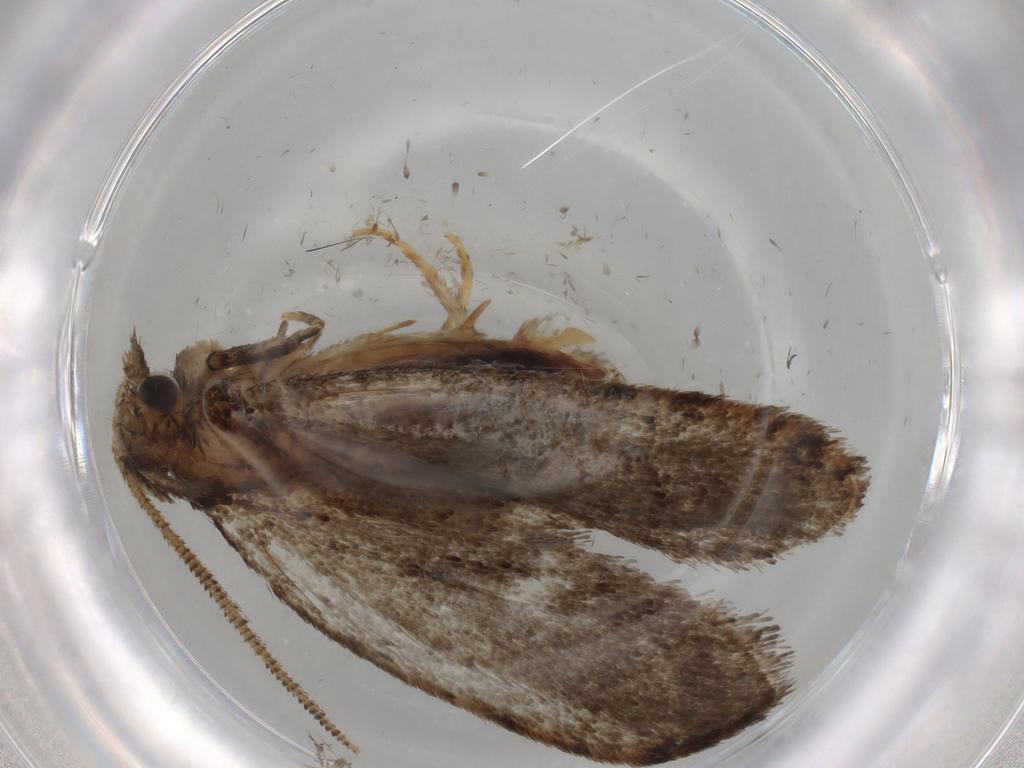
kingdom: Animalia
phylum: Arthropoda
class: Insecta
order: Lepidoptera
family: Tineidae
